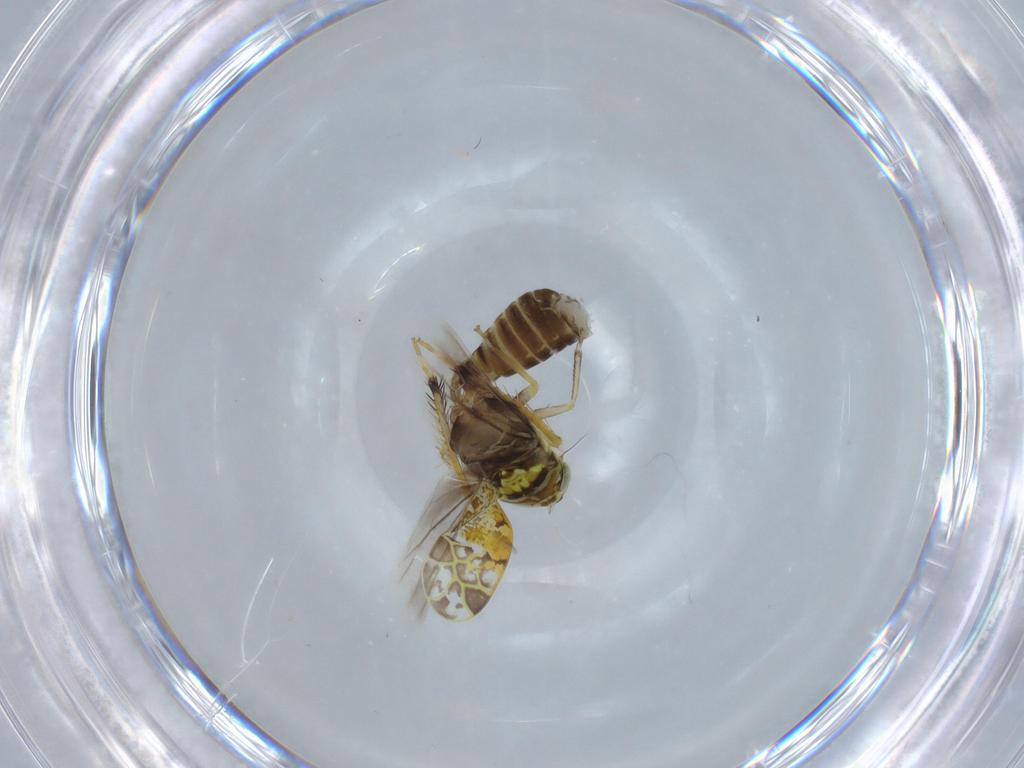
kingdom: Animalia
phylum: Arthropoda
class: Insecta
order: Hemiptera
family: Cicadellidae
